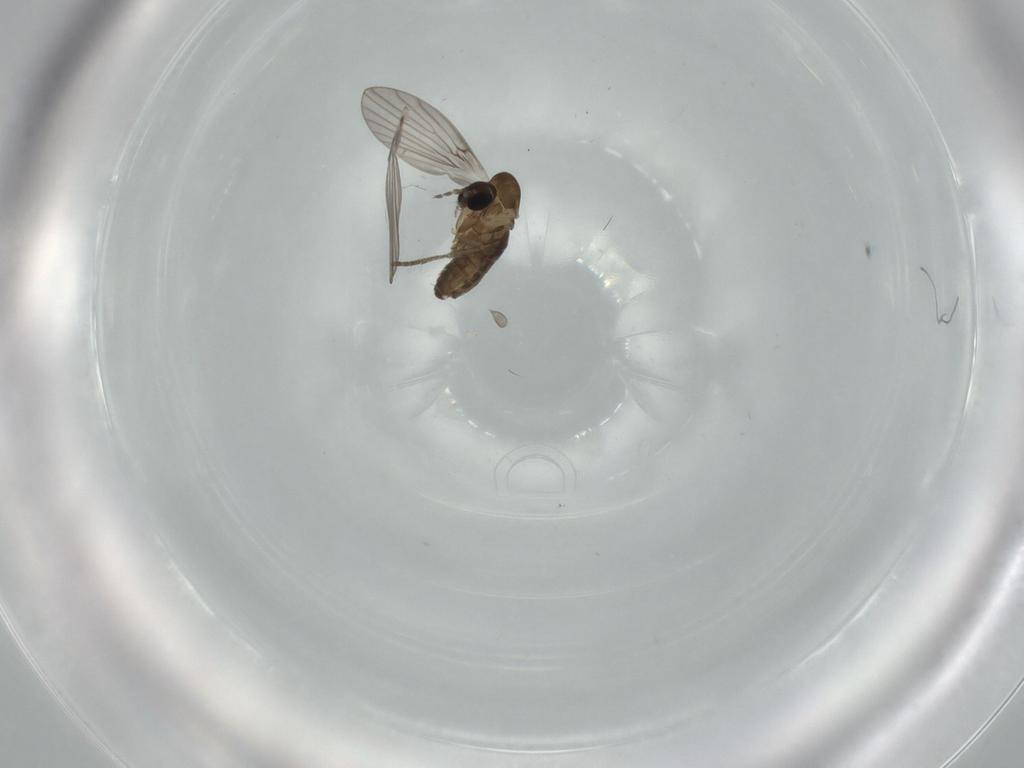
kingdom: Animalia
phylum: Arthropoda
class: Insecta
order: Diptera
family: Psychodidae
